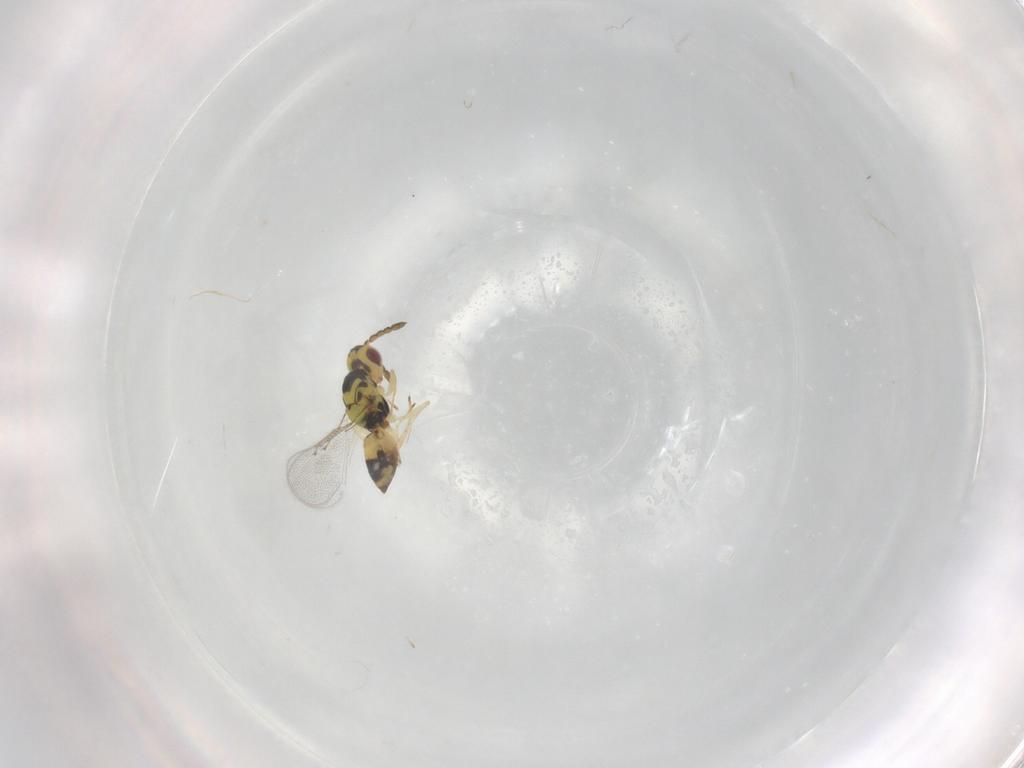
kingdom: Animalia
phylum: Arthropoda
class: Insecta
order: Hymenoptera
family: Eulophidae
